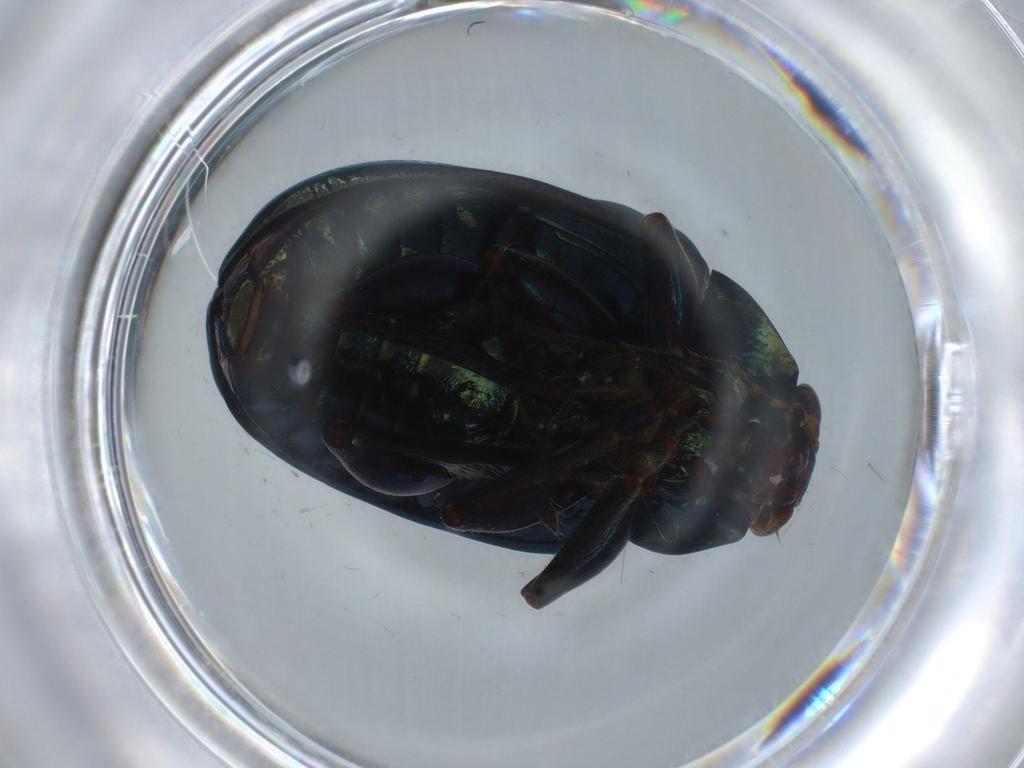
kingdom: Animalia
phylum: Arthropoda
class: Insecta
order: Coleoptera
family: Chrysomelidae
